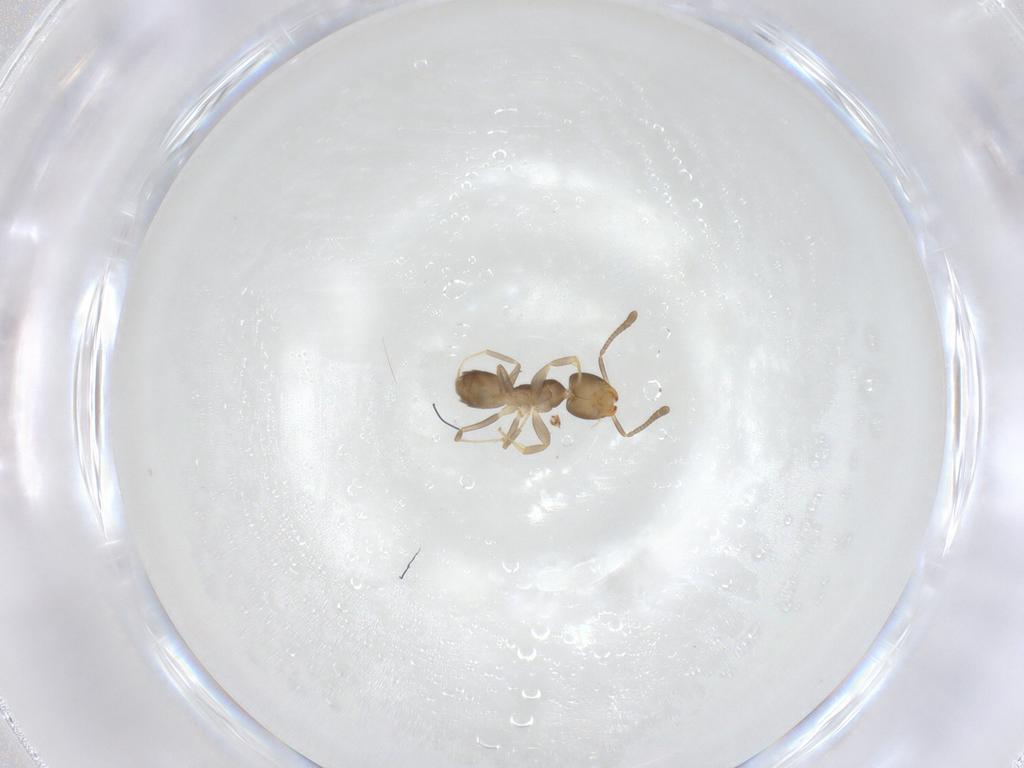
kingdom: Animalia
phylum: Arthropoda
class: Insecta
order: Hymenoptera
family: Formicidae
